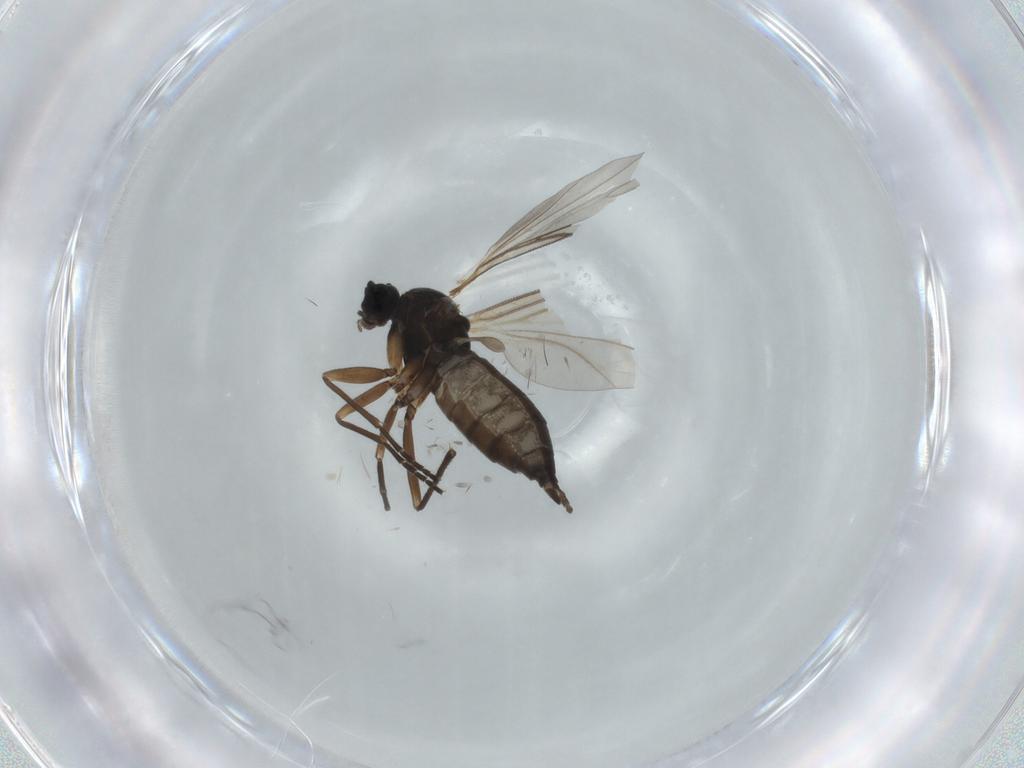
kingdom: Animalia
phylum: Arthropoda
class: Insecta
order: Diptera
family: Sciaridae
